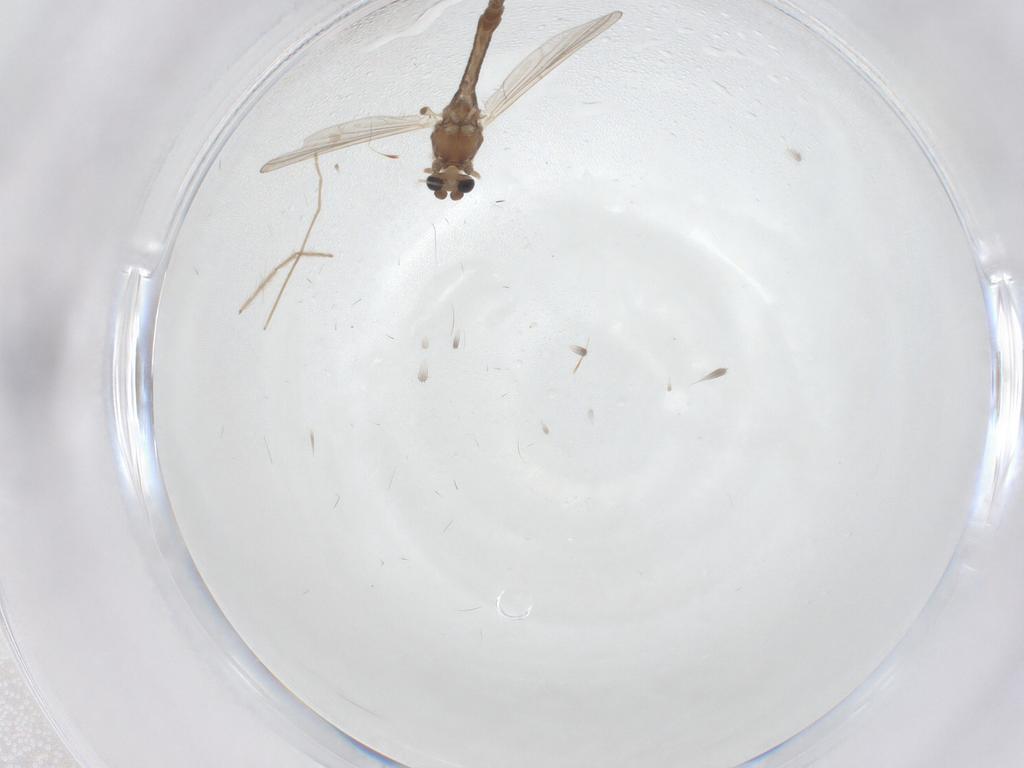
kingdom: Animalia
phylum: Arthropoda
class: Insecta
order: Diptera
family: Chironomidae
